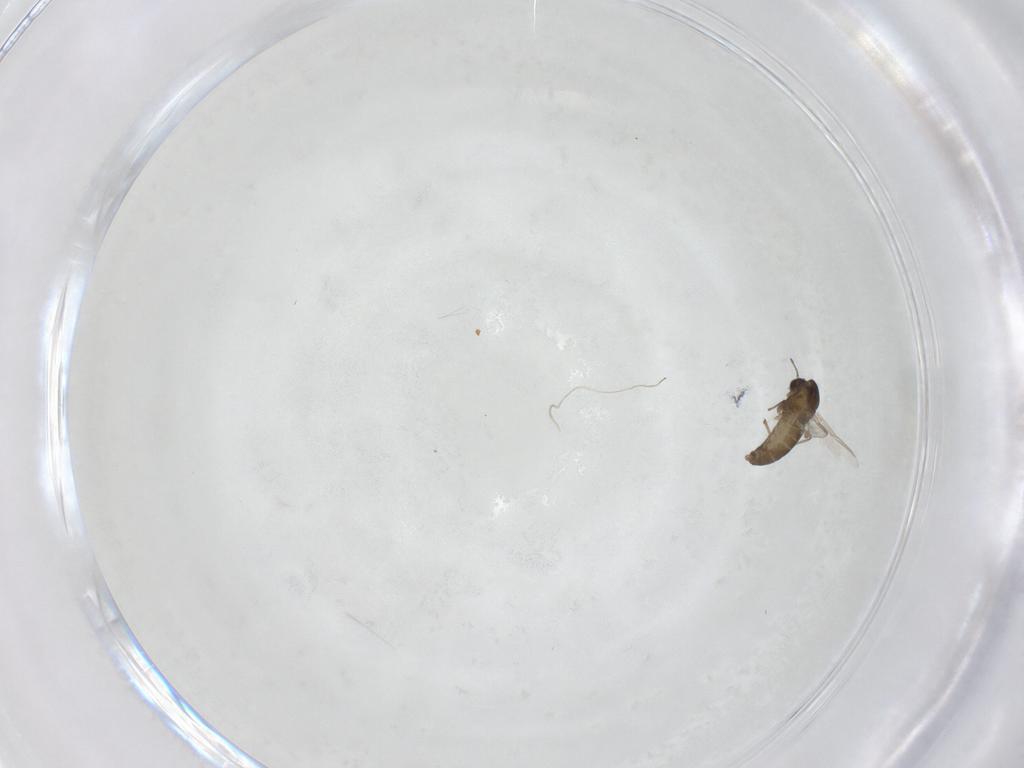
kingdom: Animalia
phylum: Arthropoda
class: Insecta
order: Diptera
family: Chironomidae
